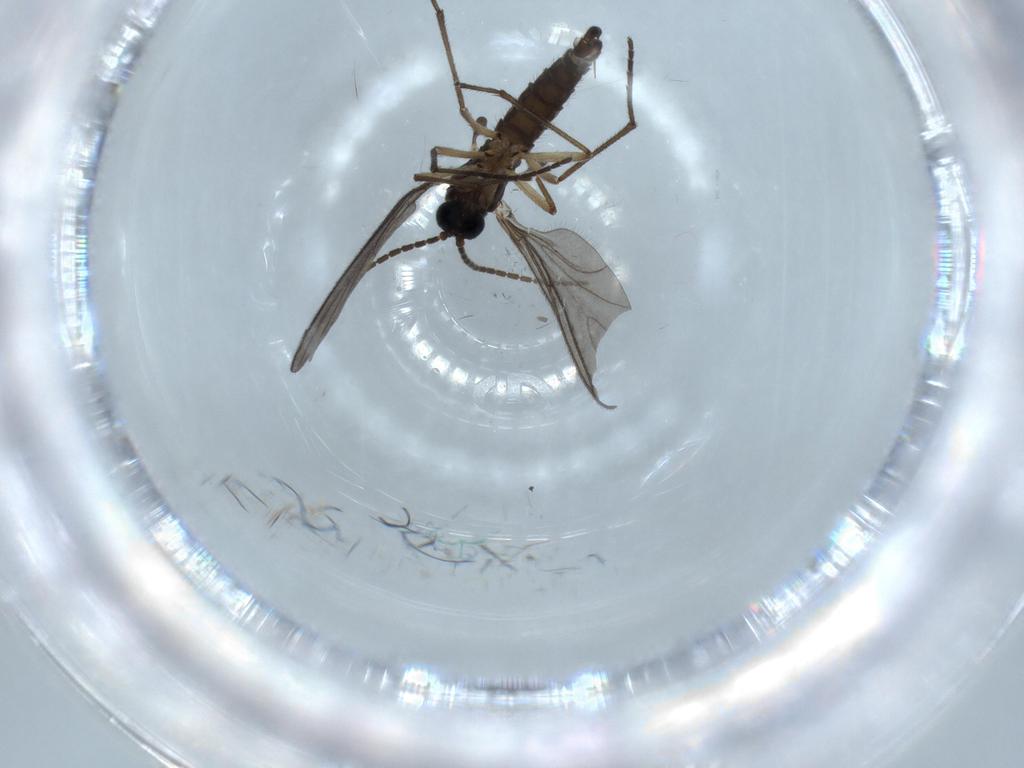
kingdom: Animalia
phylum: Arthropoda
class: Insecta
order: Diptera
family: Sciaridae
